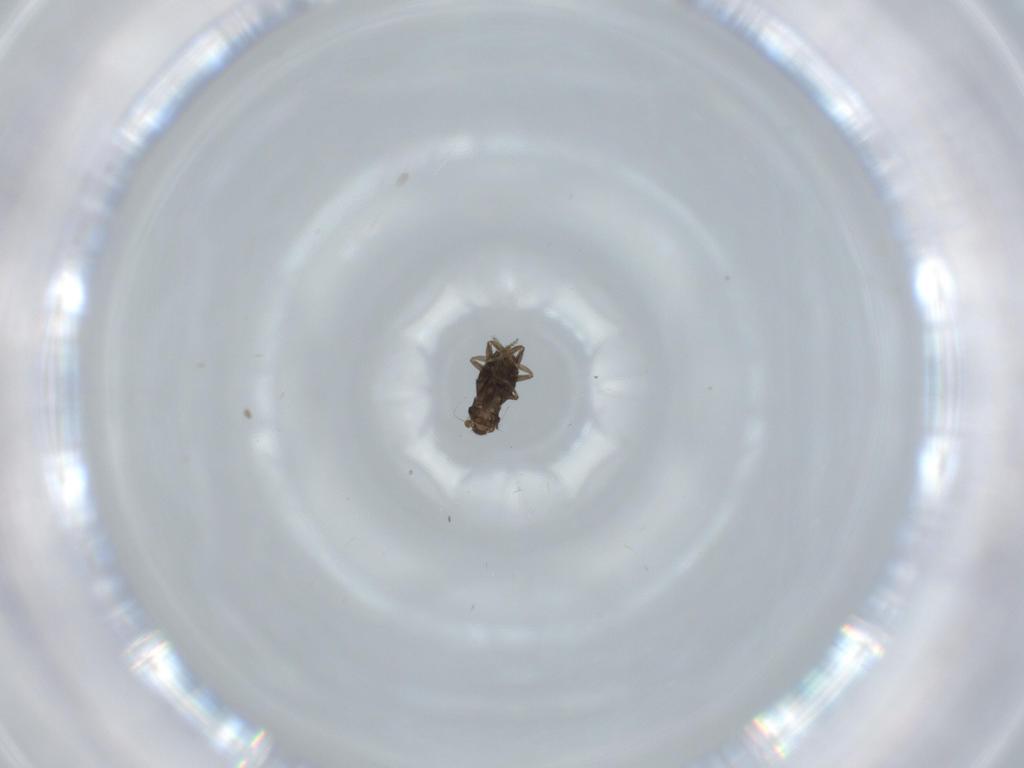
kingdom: Animalia
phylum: Arthropoda
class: Insecta
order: Diptera
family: Phoridae
